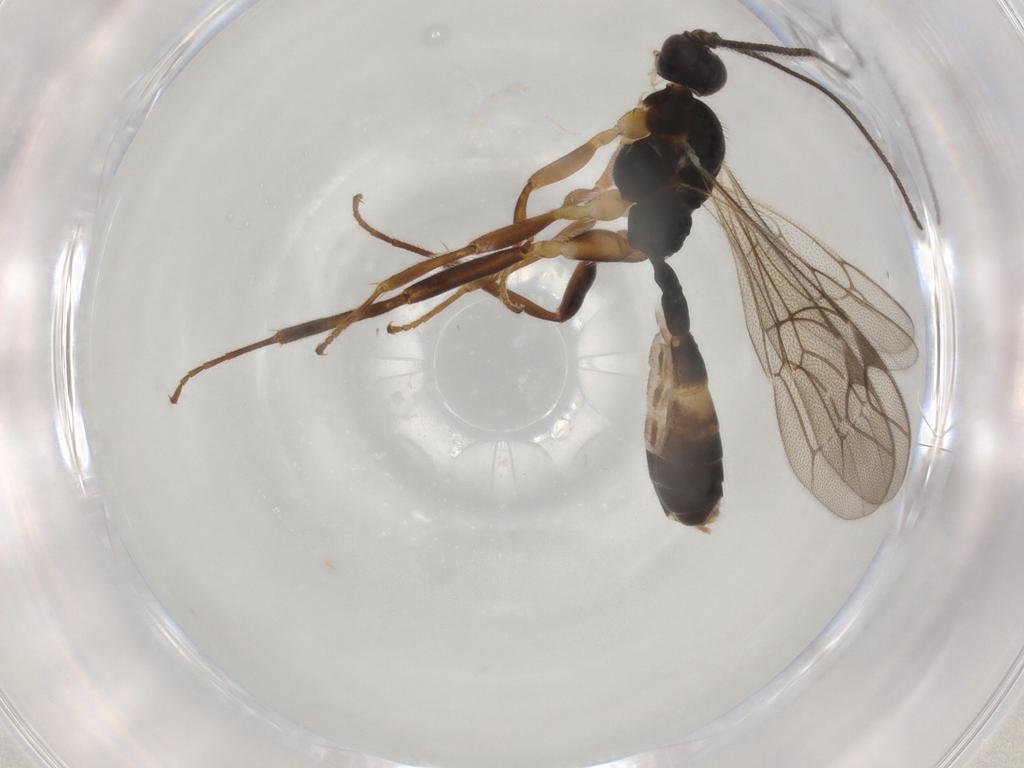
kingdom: Animalia
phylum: Arthropoda
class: Insecta
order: Hymenoptera
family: Ichneumonidae
